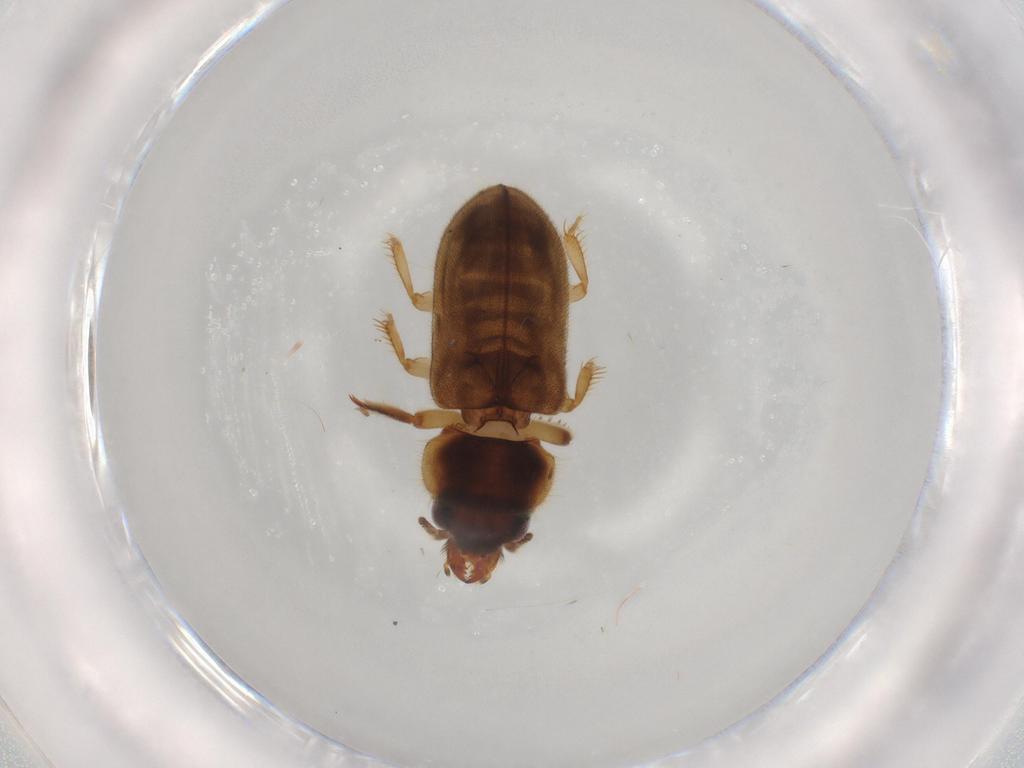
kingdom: Animalia
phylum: Arthropoda
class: Insecta
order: Coleoptera
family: Heteroceridae
